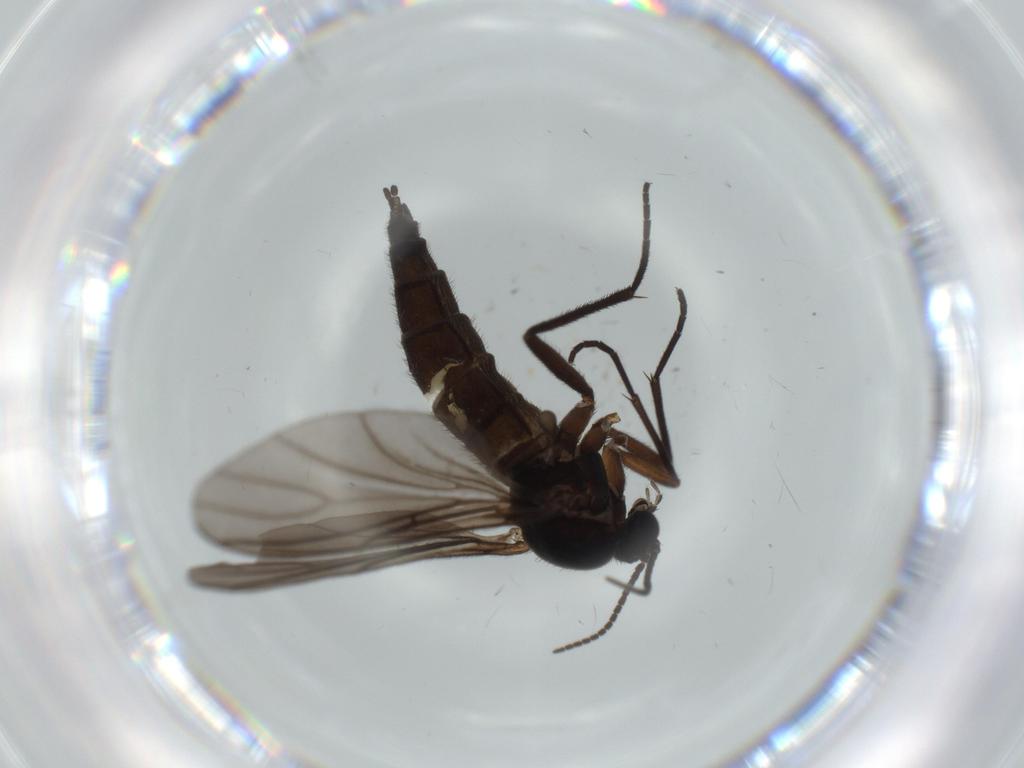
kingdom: Animalia
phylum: Arthropoda
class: Insecta
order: Diptera
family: Sciaridae
